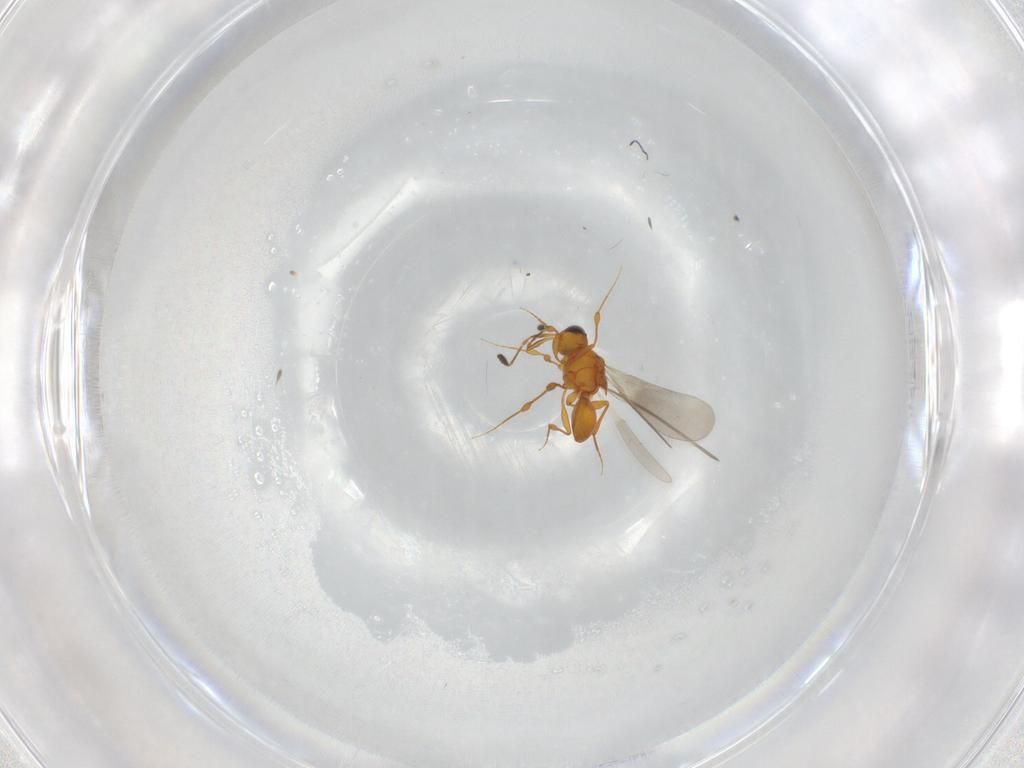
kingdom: Animalia
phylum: Arthropoda
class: Insecta
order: Hymenoptera
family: Platygastridae
